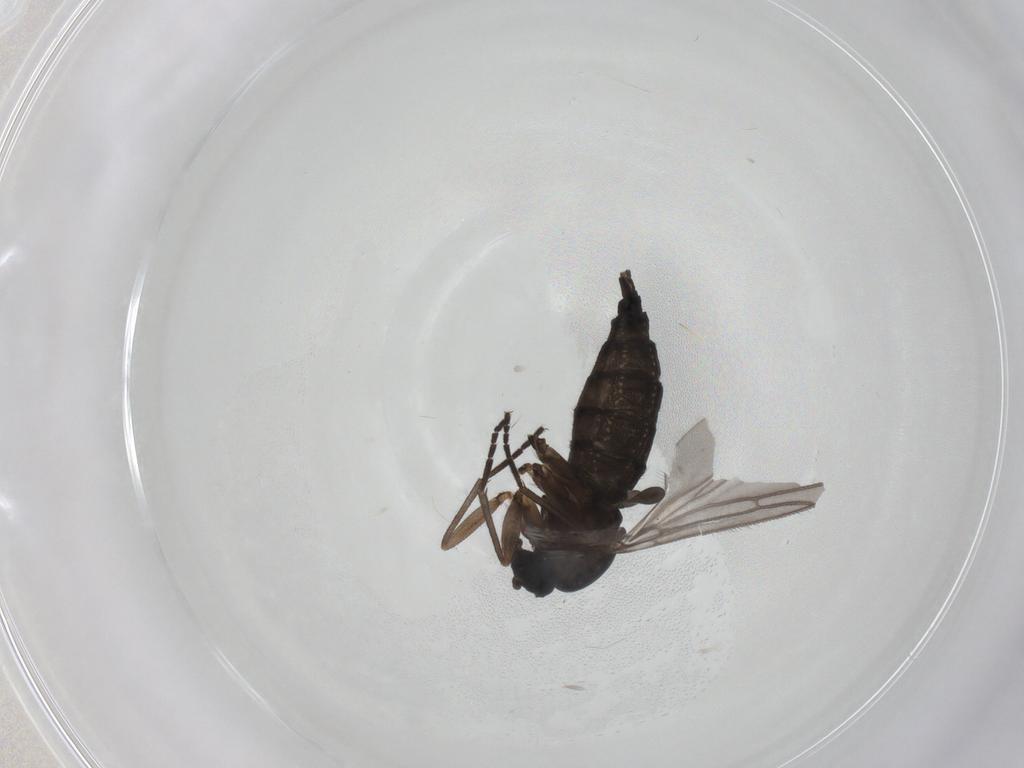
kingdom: Animalia
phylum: Arthropoda
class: Insecta
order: Diptera
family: Sciaridae
